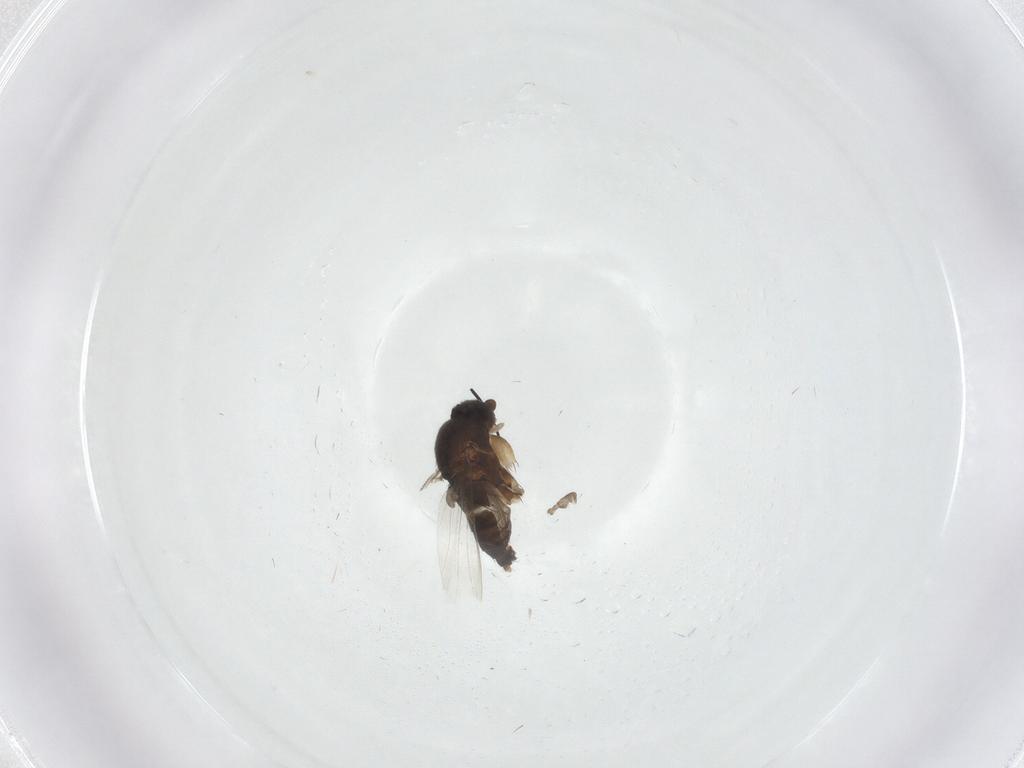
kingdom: Animalia
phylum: Arthropoda
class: Insecta
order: Diptera
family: Phoridae
